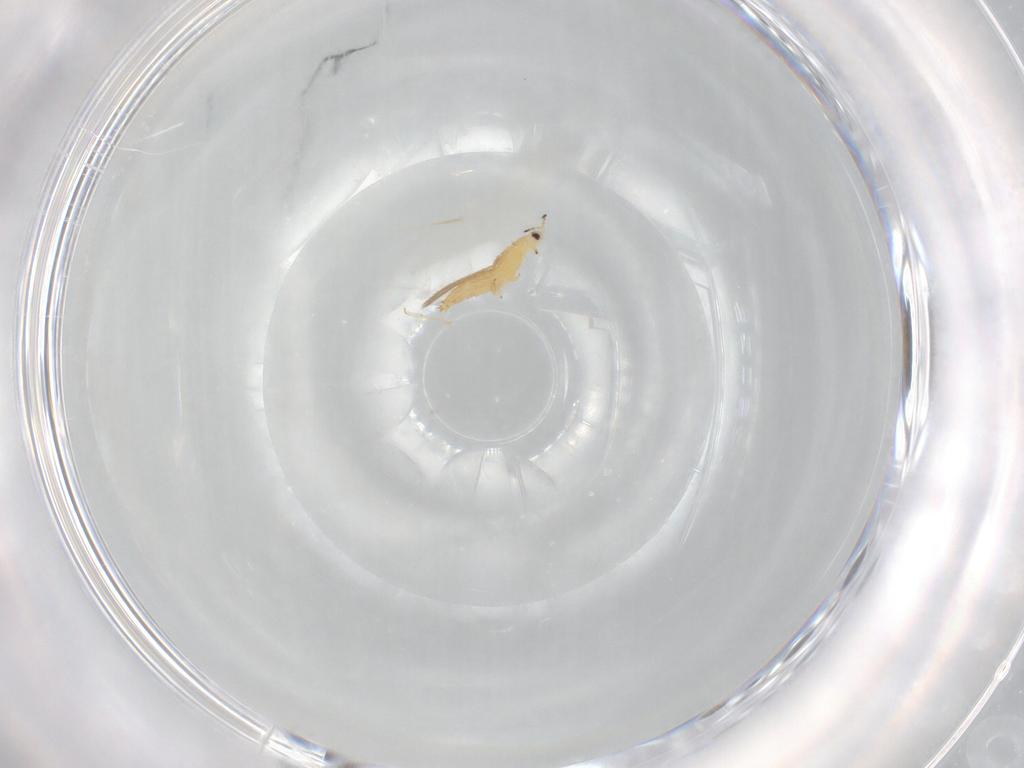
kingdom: Animalia
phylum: Arthropoda
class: Insecta
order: Thysanoptera
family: Thripidae
